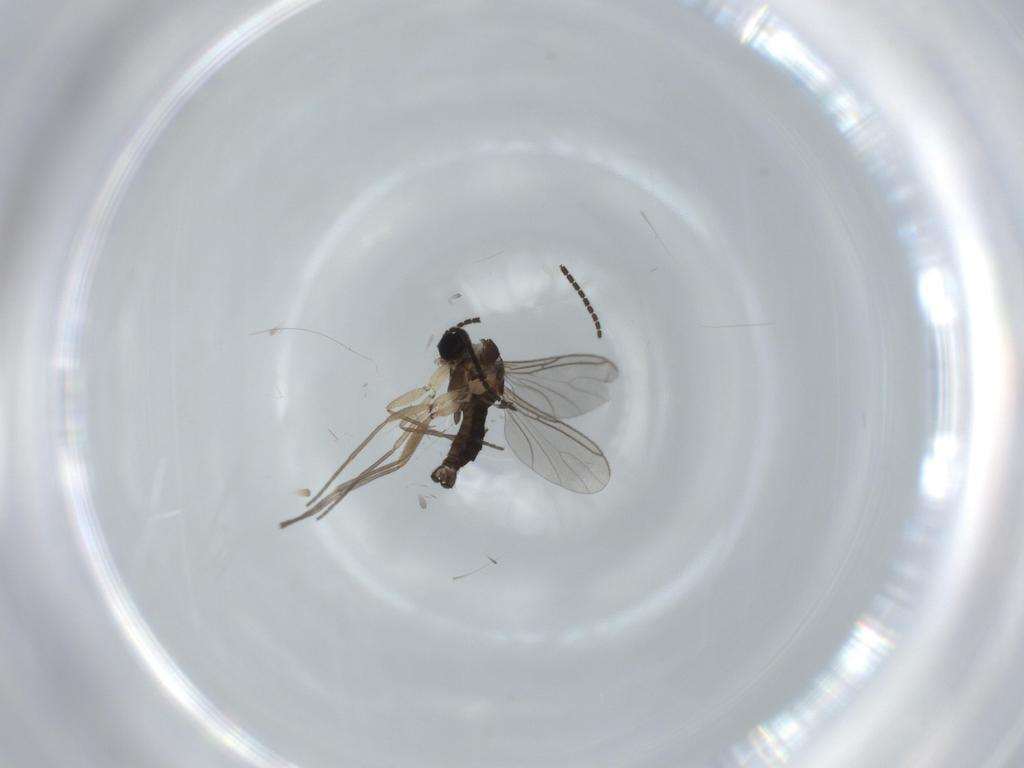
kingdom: Animalia
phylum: Arthropoda
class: Insecta
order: Diptera
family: Sciaridae
